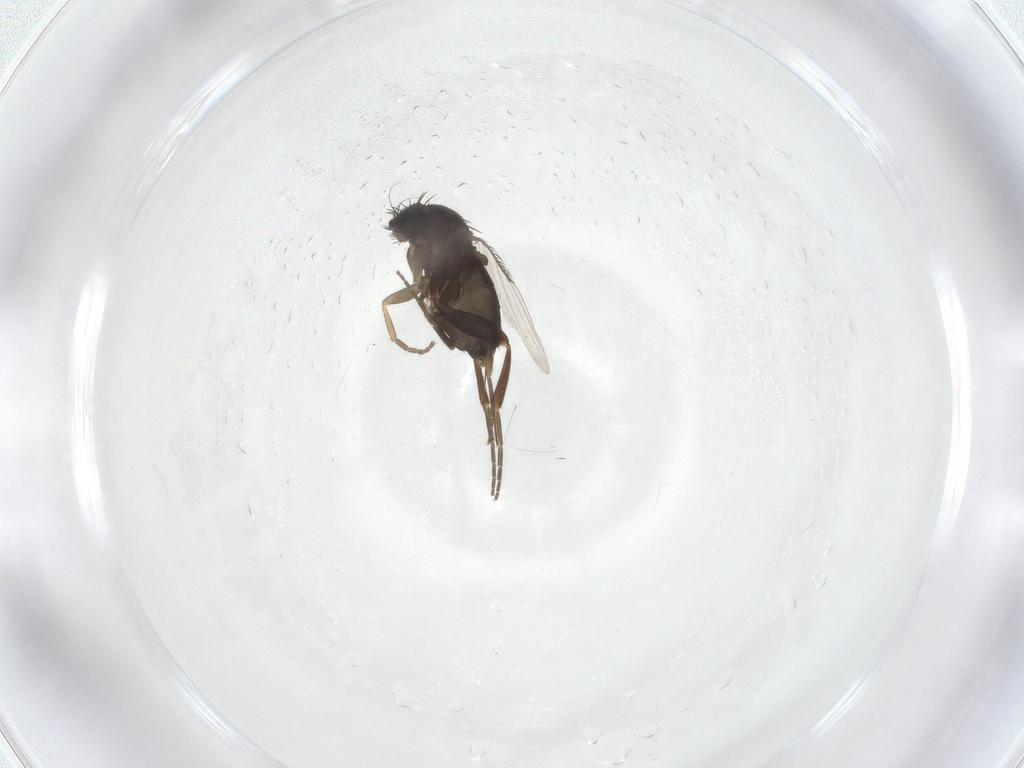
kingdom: Animalia
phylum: Arthropoda
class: Insecta
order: Diptera
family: Phoridae
